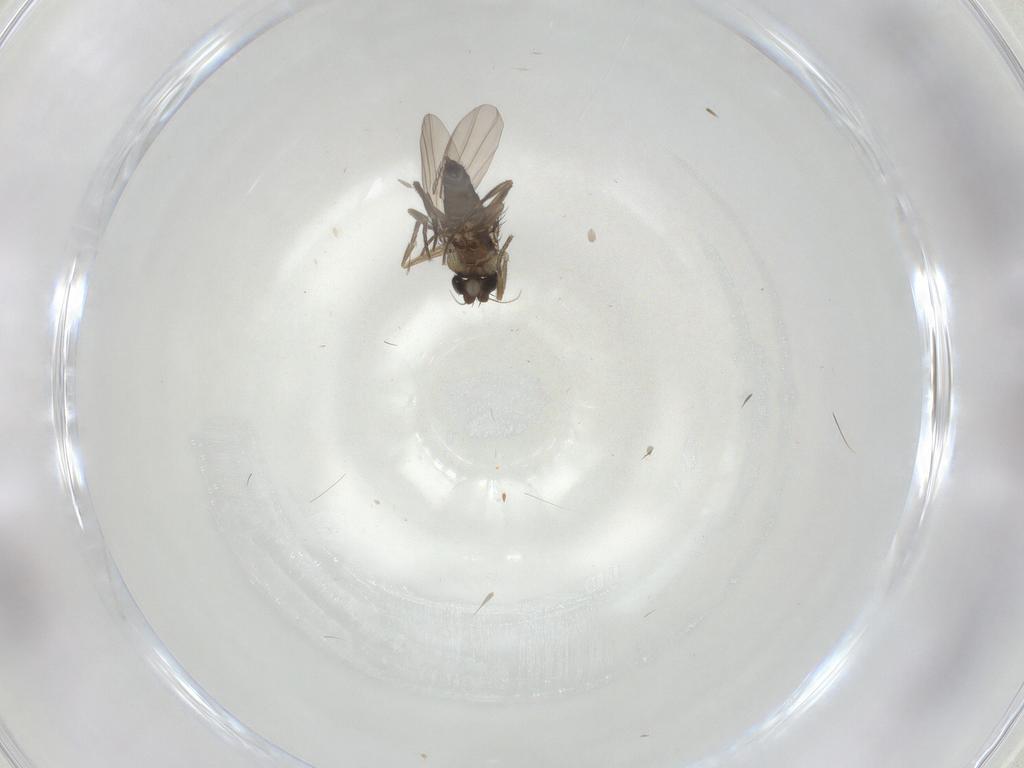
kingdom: Animalia
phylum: Arthropoda
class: Insecta
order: Diptera
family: Phoridae
